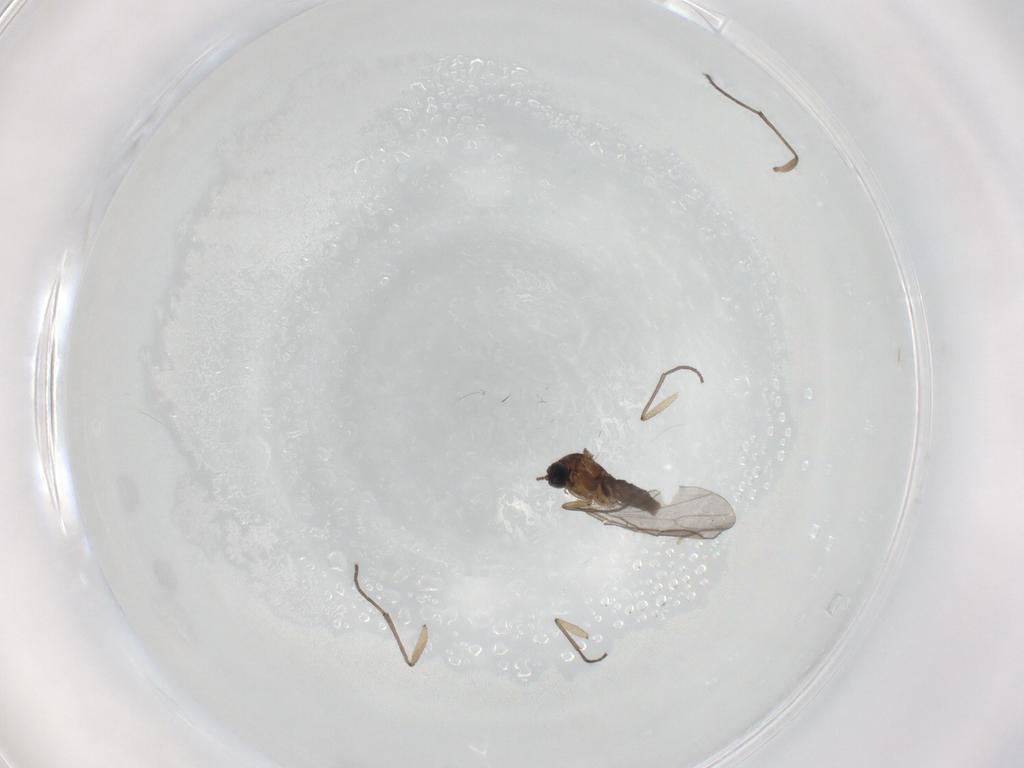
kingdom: Animalia
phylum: Arthropoda
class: Insecta
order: Diptera
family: Sciaridae
